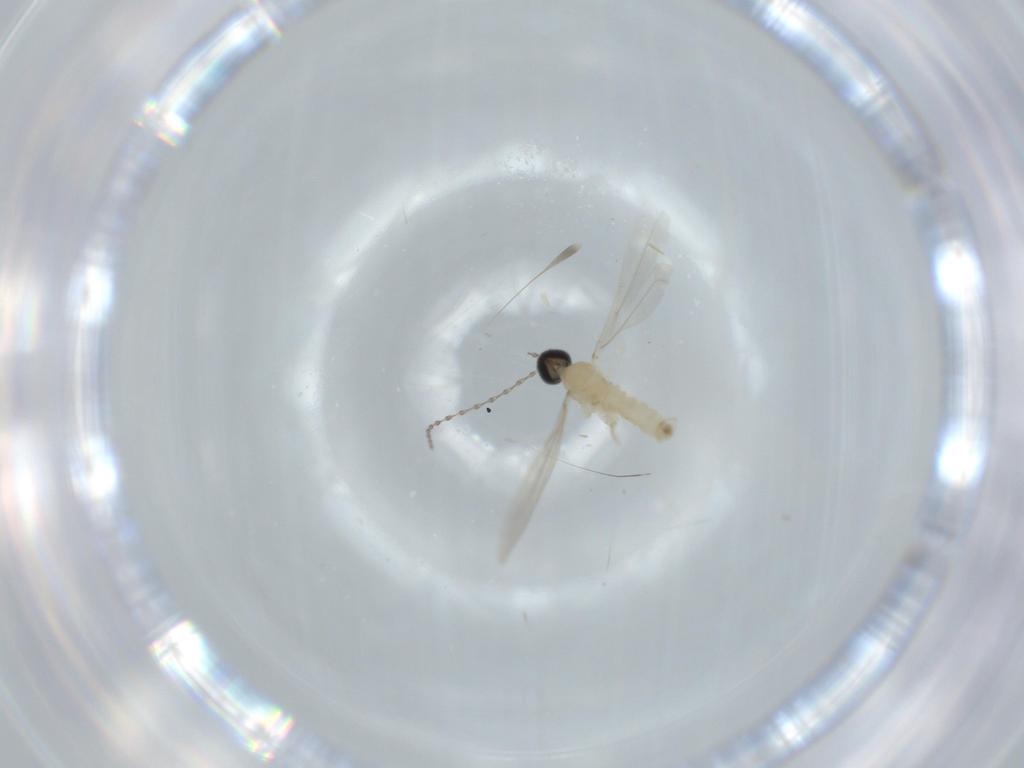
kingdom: Animalia
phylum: Arthropoda
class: Insecta
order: Diptera
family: Cecidomyiidae
